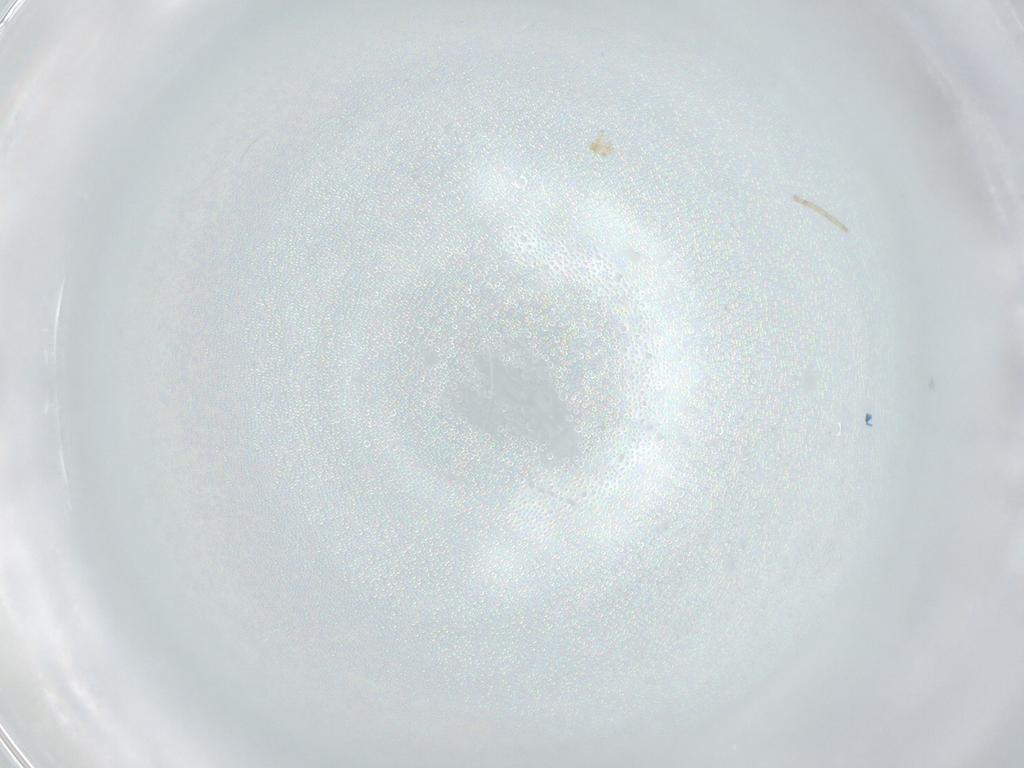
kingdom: Animalia
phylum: Arthropoda
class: Insecta
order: Hemiptera
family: Aleyrodidae
